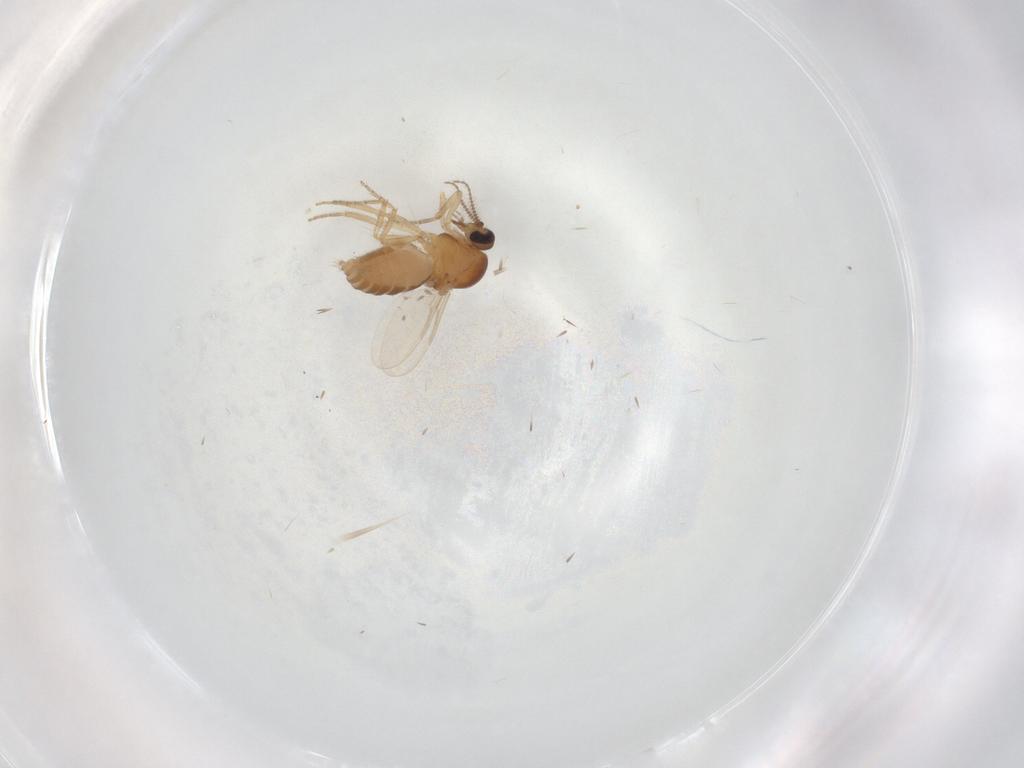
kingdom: Animalia
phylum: Arthropoda
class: Insecta
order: Diptera
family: Ceratopogonidae
